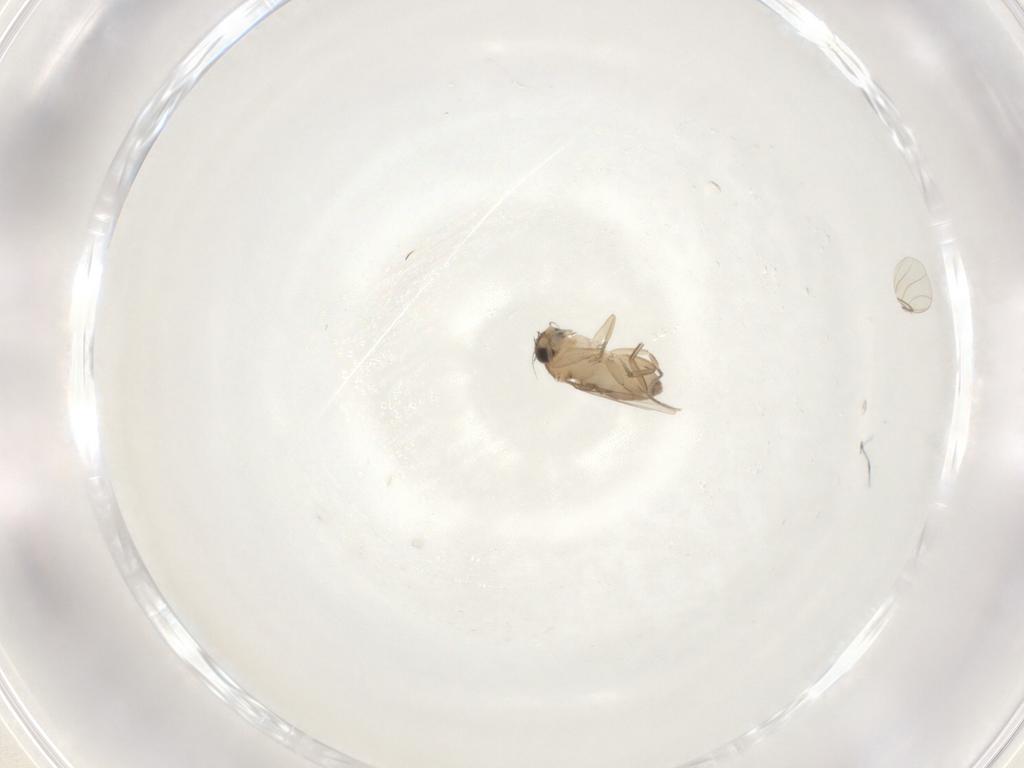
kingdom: Animalia
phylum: Arthropoda
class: Insecta
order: Diptera
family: Phoridae
